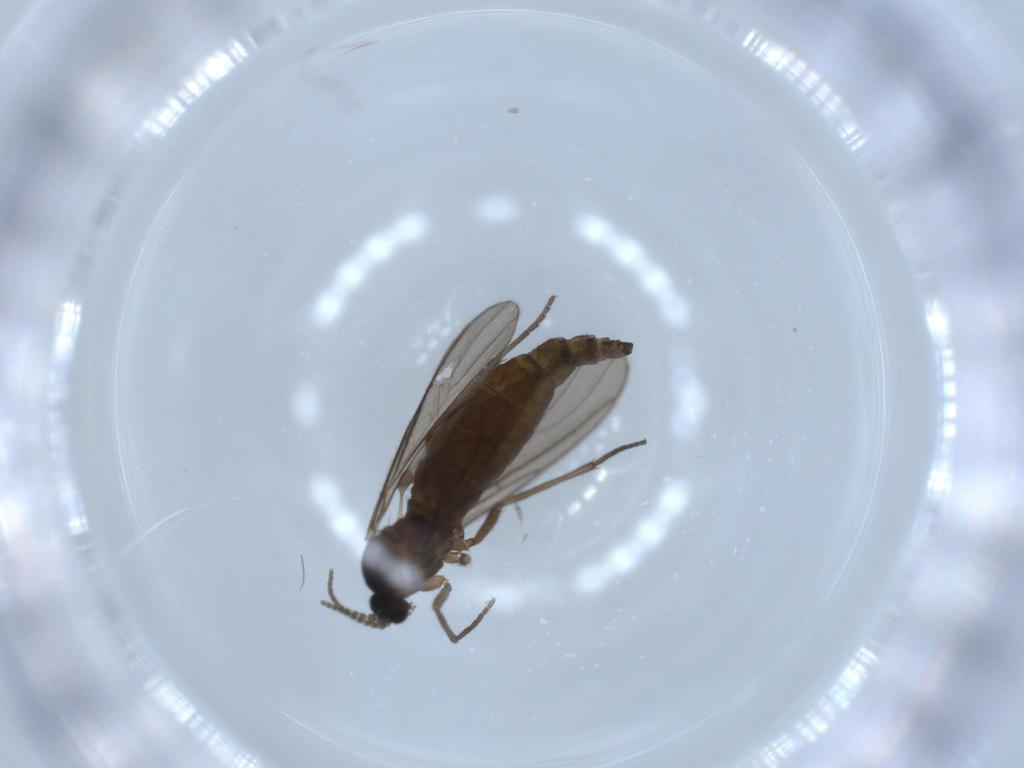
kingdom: Animalia
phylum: Arthropoda
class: Insecta
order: Diptera
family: Sciaridae
